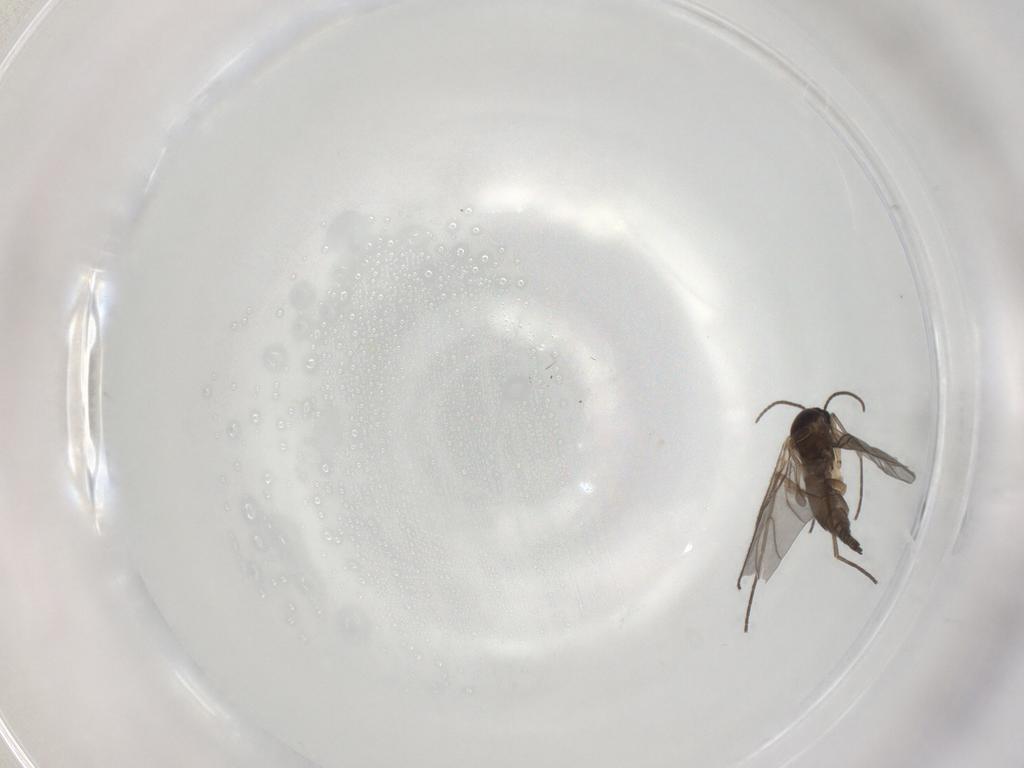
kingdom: Animalia
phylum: Arthropoda
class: Insecta
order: Diptera
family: Sciaridae
